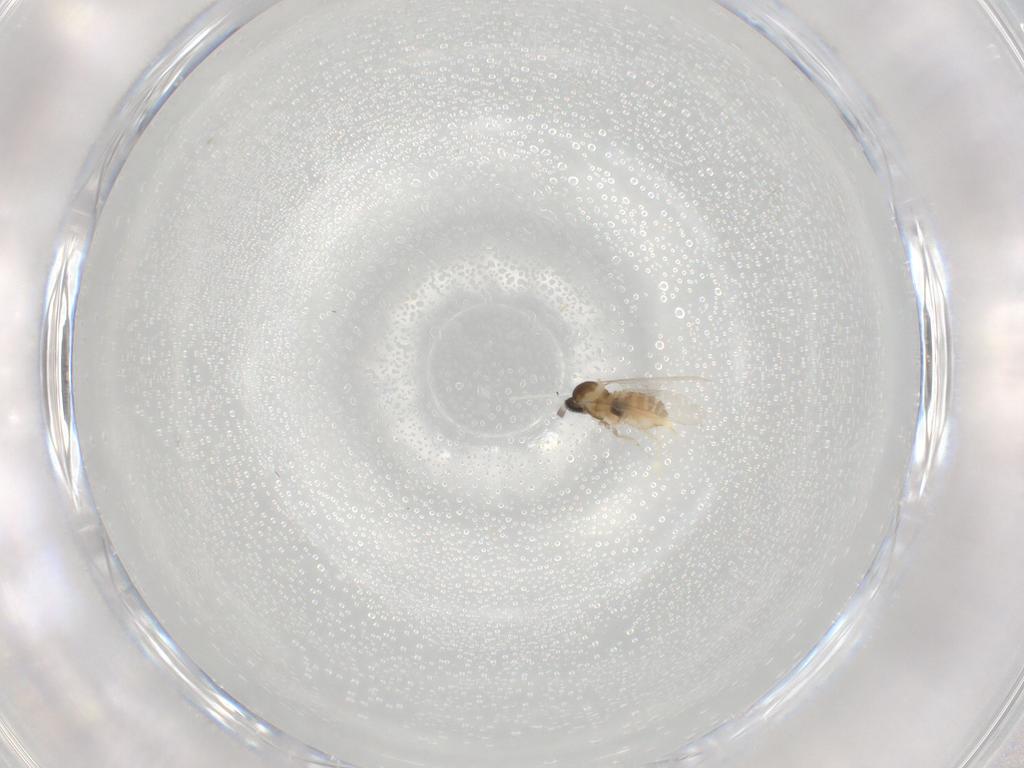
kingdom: Animalia
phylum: Arthropoda
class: Insecta
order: Diptera
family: Cecidomyiidae
